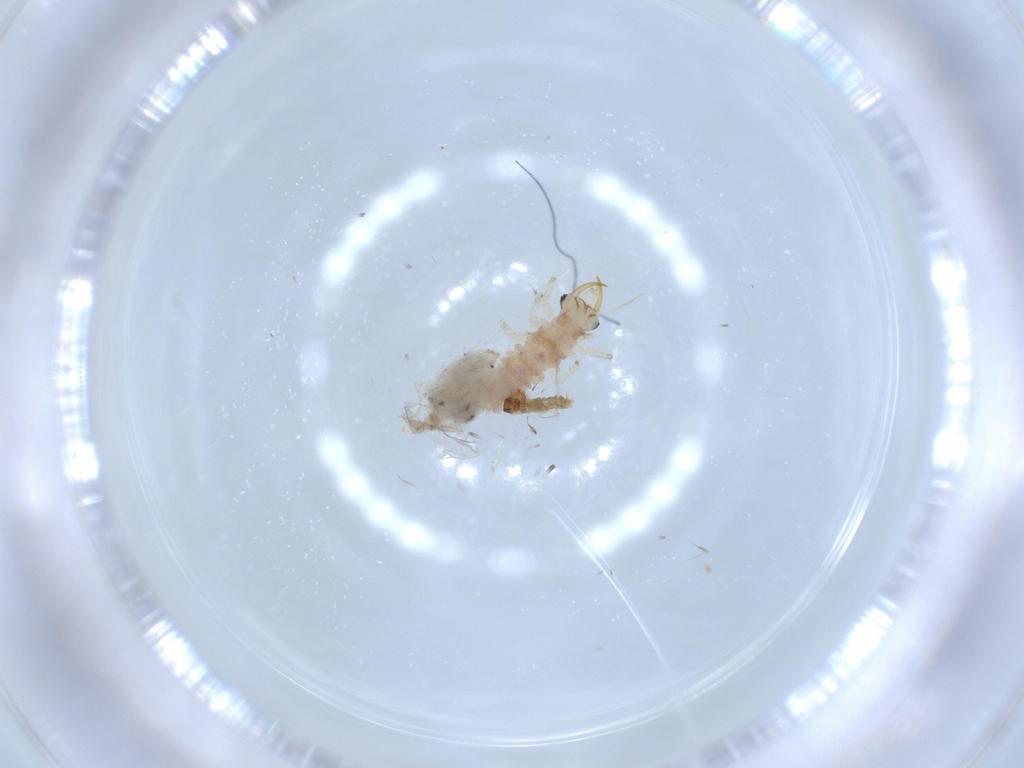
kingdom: Animalia
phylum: Arthropoda
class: Insecta
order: Neuroptera
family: Chrysopidae
